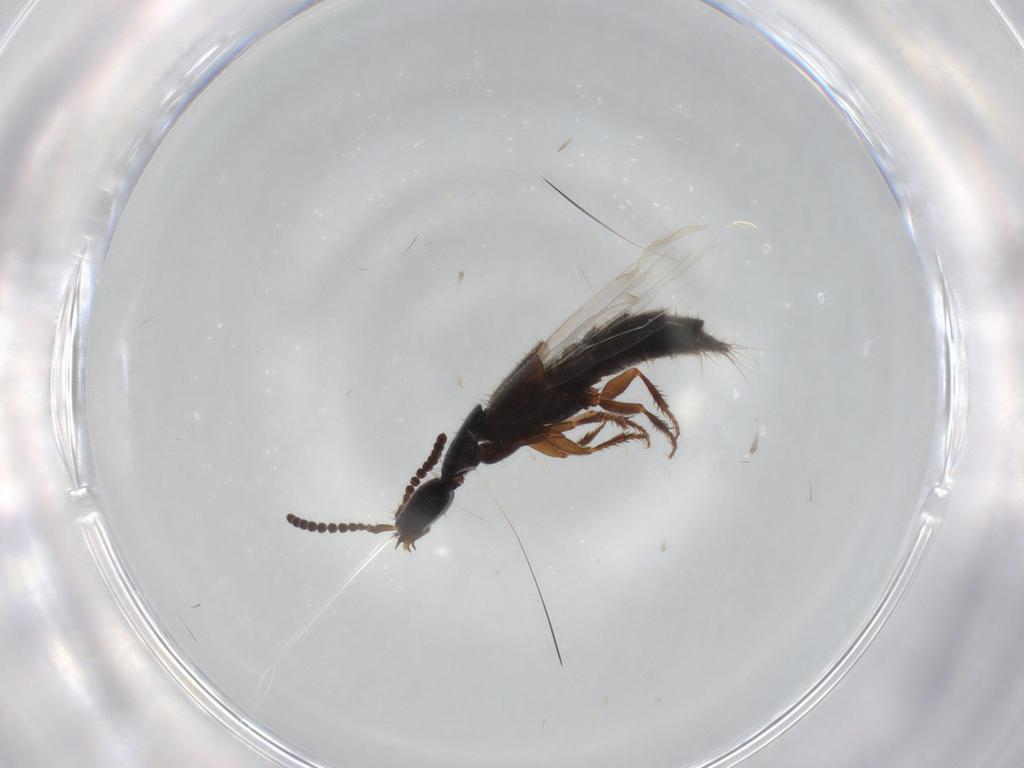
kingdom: Animalia
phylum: Arthropoda
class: Insecta
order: Coleoptera
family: Staphylinidae
